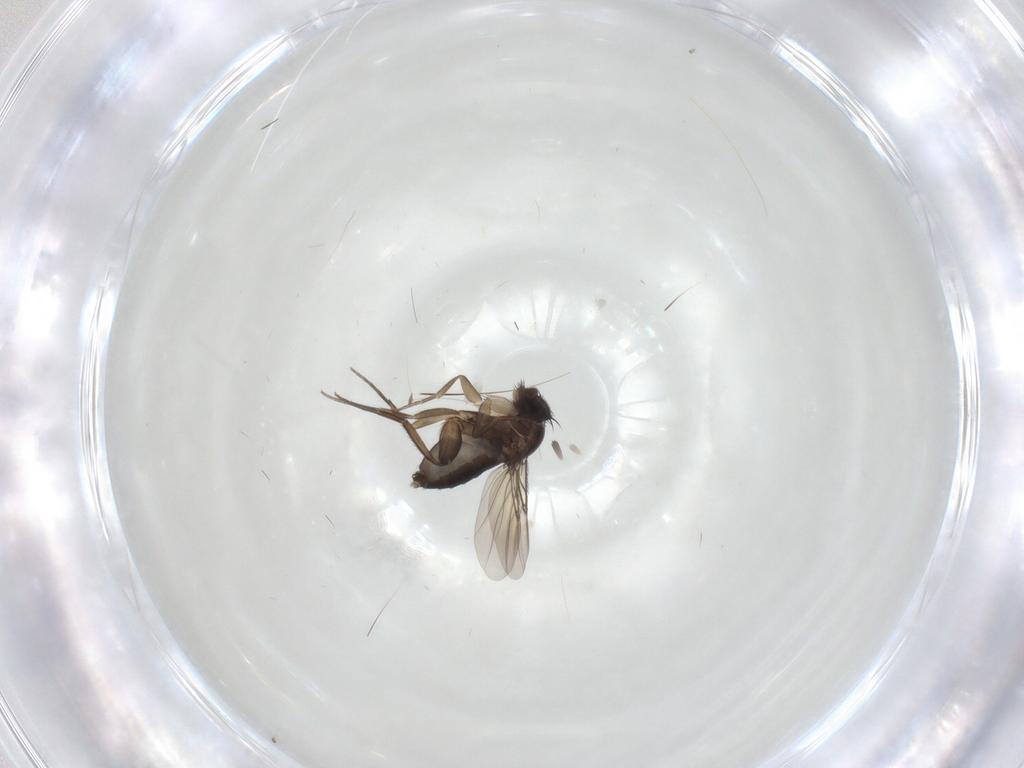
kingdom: Animalia
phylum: Arthropoda
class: Insecta
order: Diptera
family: Phoridae
